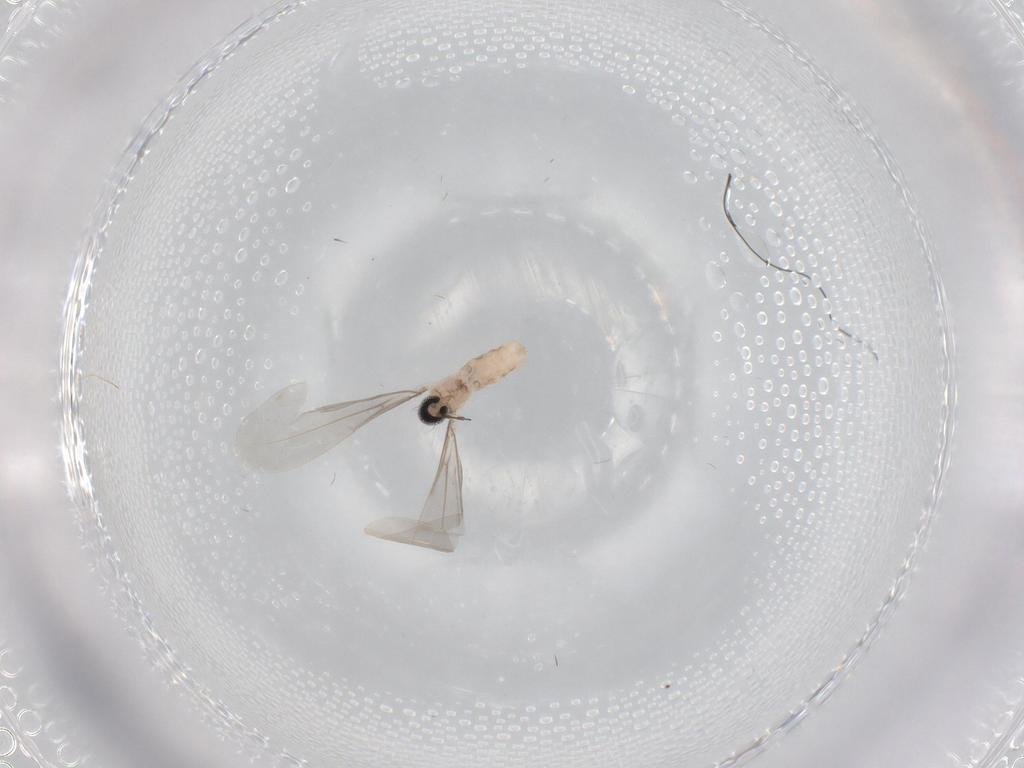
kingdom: Animalia
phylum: Arthropoda
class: Insecta
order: Diptera
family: Cecidomyiidae
